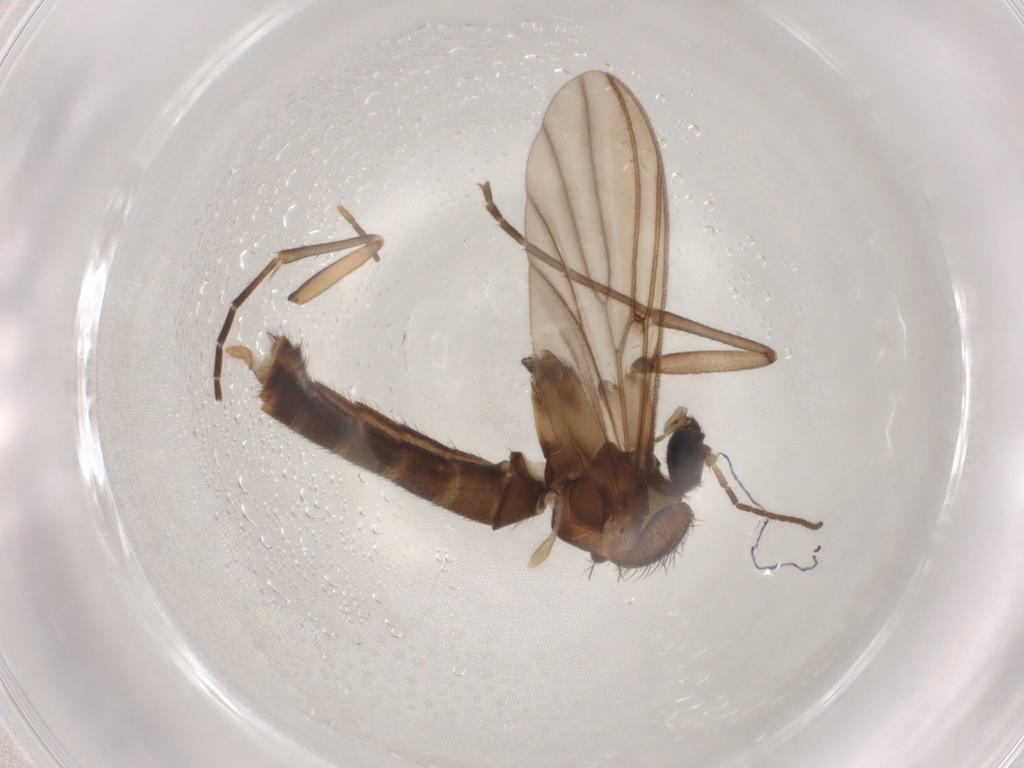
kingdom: Animalia
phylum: Arthropoda
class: Insecta
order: Diptera
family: Mycetophilidae
